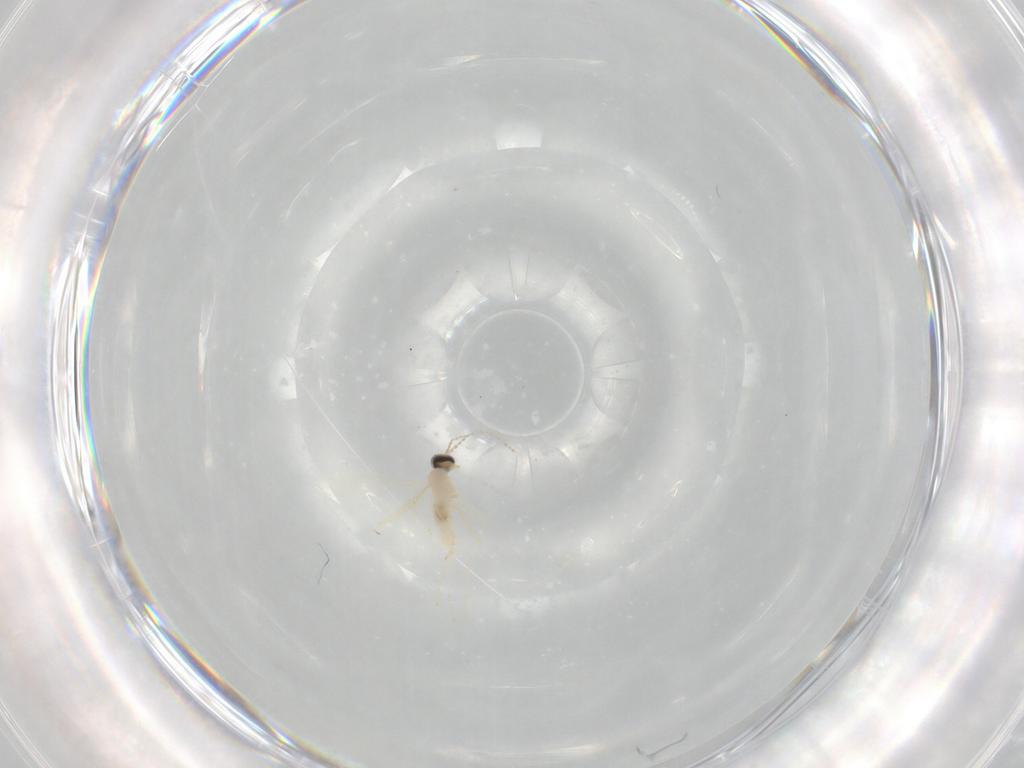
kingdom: Animalia
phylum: Arthropoda
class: Insecta
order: Diptera
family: Cecidomyiidae
